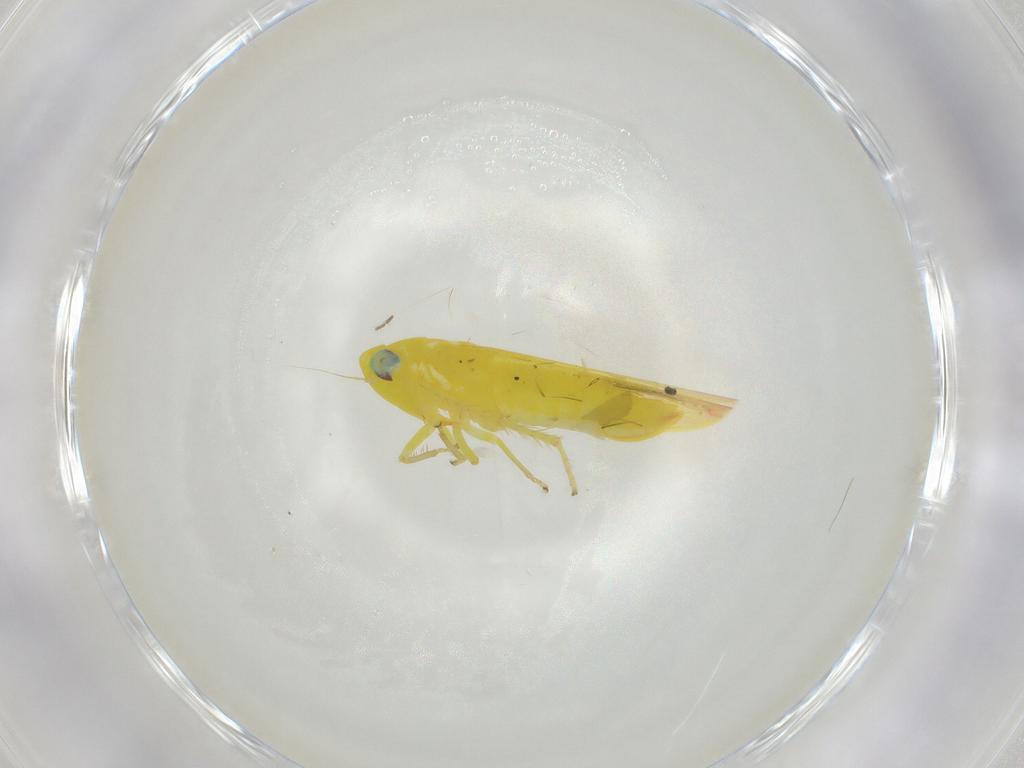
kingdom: Animalia
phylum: Arthropoda
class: Insecta
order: Hemiptera
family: Cicadellidae
